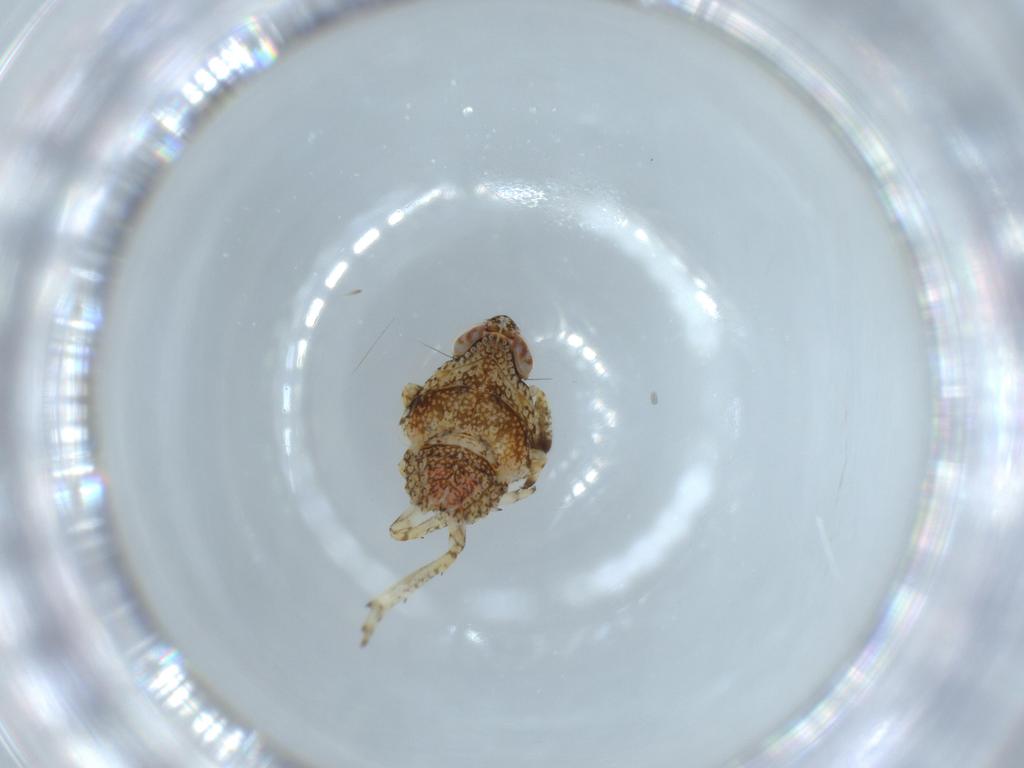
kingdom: Animalia
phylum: Arthropoda
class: Insecta
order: Hemiptera
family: Issidae
